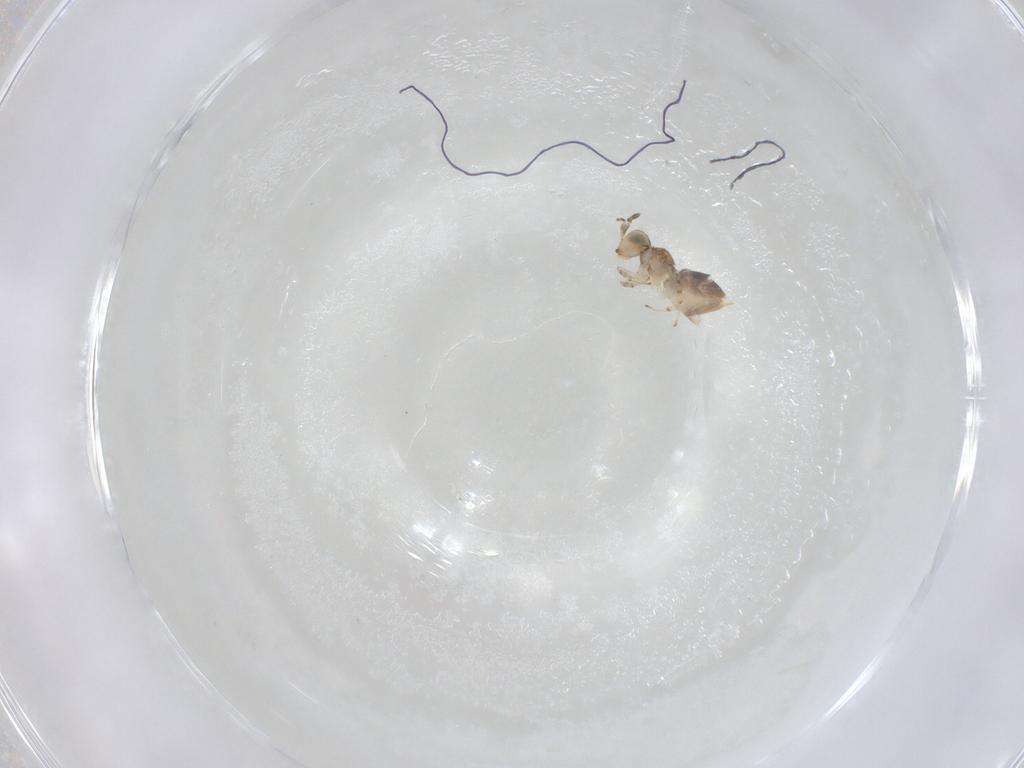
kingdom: Animalia
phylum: Arthropoda
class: Insecta
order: Hymenoptera
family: Encyrtidae
